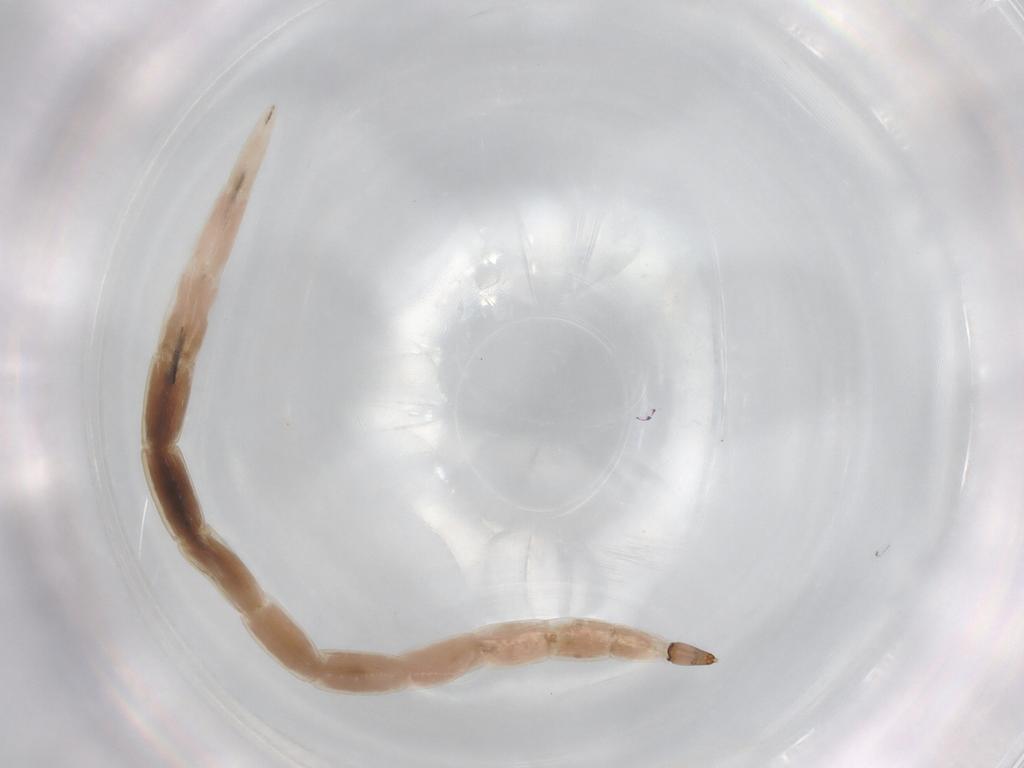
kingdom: Animalia
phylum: Arthropoda
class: Insecta
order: Diptera
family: Ceratopogonidae
